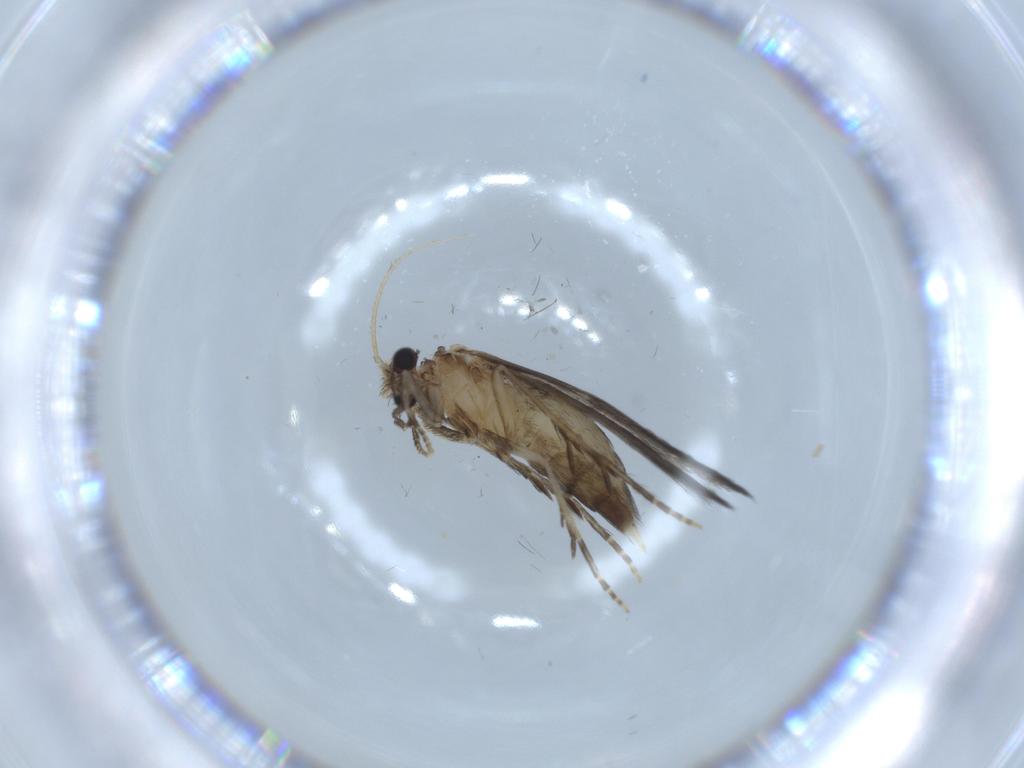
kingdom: Animalia
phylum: Arthropoda
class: Insecta
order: Trichoptera
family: Hydroptilidae
